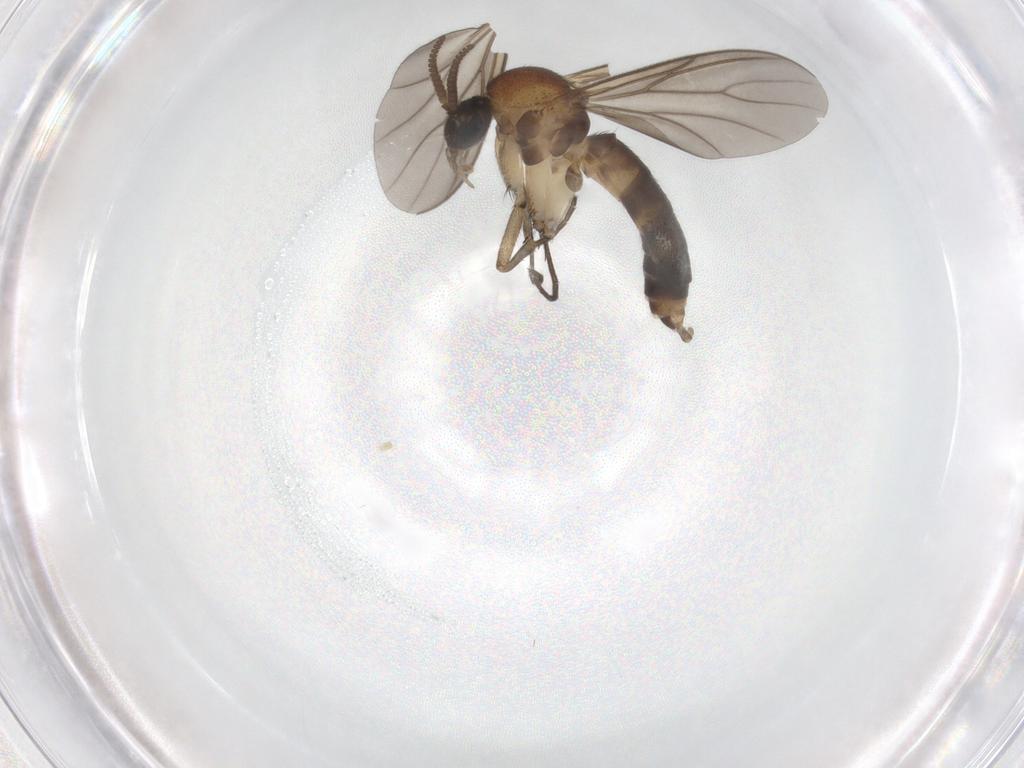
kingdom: Animalia
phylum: Arthropoda
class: Insecta
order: Diptera
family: Mycetophilidae
